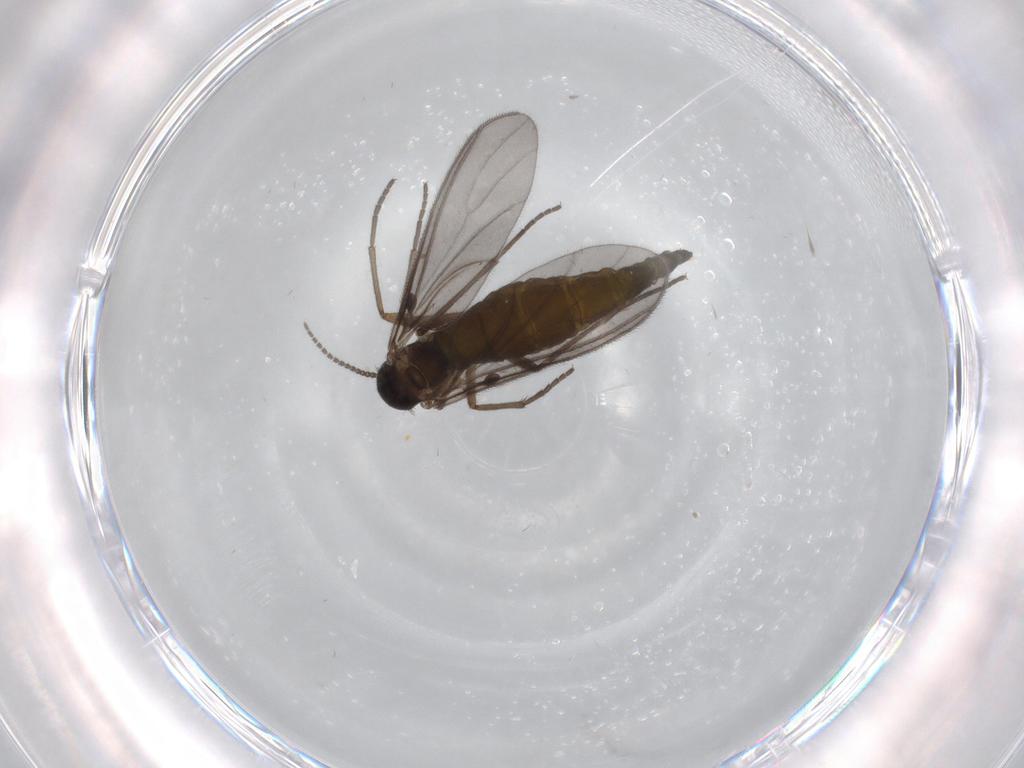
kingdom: Animalia
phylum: Arthropoda
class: Insecta
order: Diptera
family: Sciaridae
